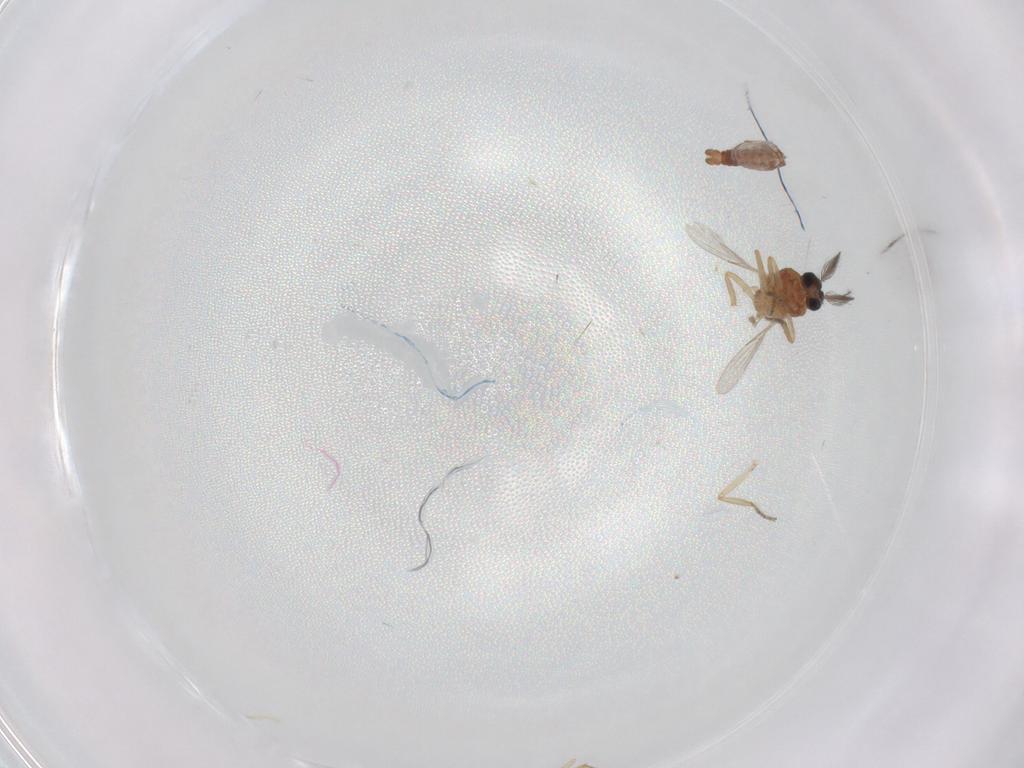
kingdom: Animalia
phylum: Arthropoda
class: Insecta
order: Diptera
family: Ceratopogonidae
